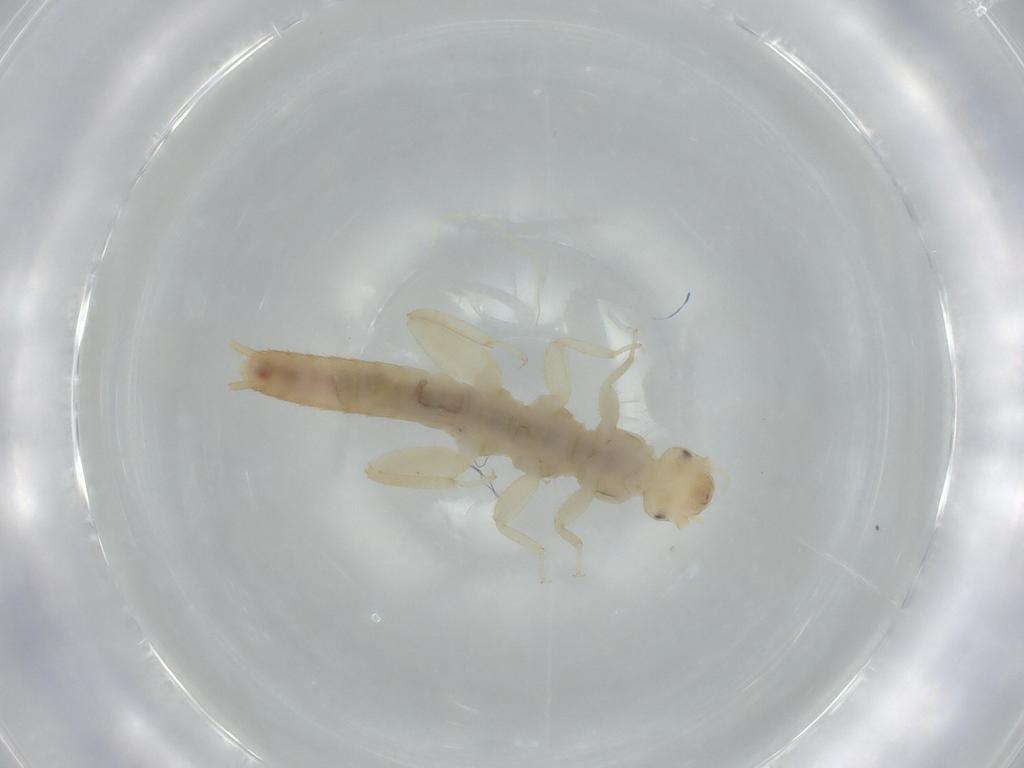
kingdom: Animalia
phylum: Arthropoda
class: Insecta
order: Plecoptera
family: Leuctridae
